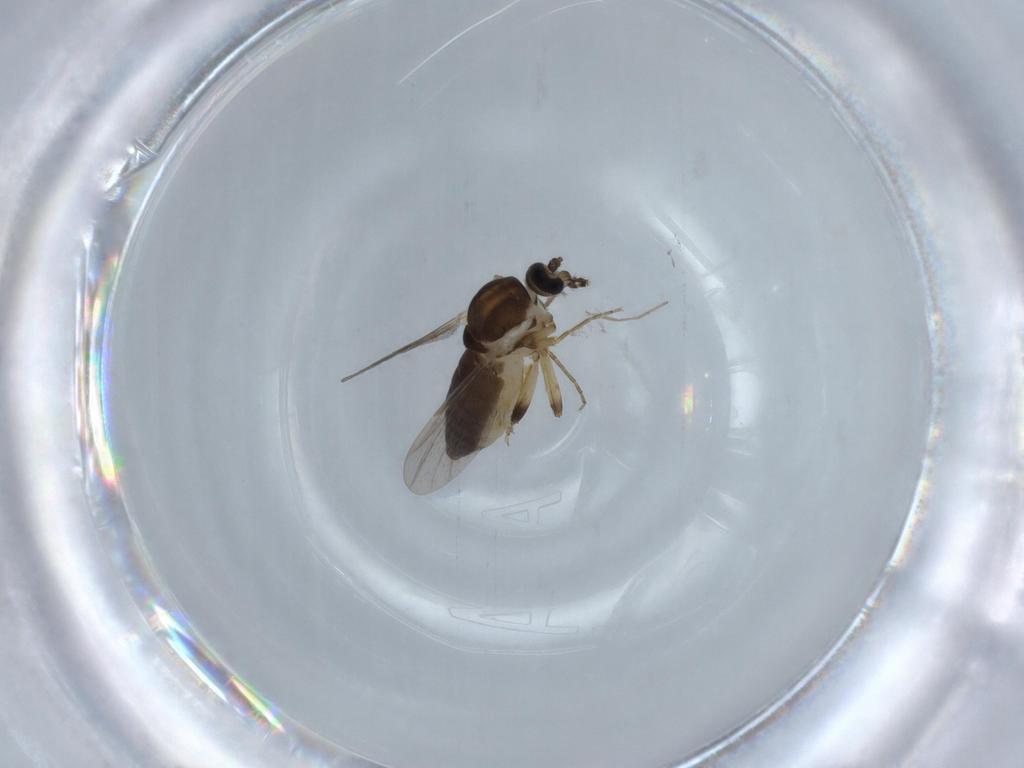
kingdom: Animalia
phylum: Arthropoda
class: Insecta
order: Diptera
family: Ceratopogonidae
